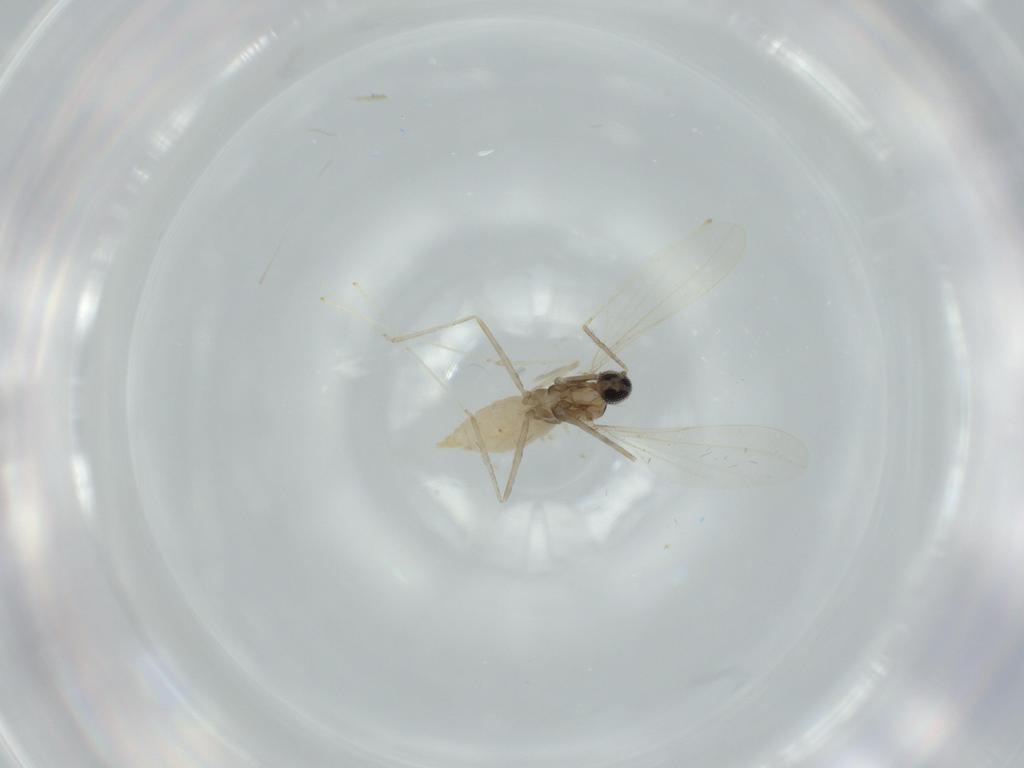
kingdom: Animalia
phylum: Arthropoda
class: Insecta
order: Diptera
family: Cecidomyiidae
